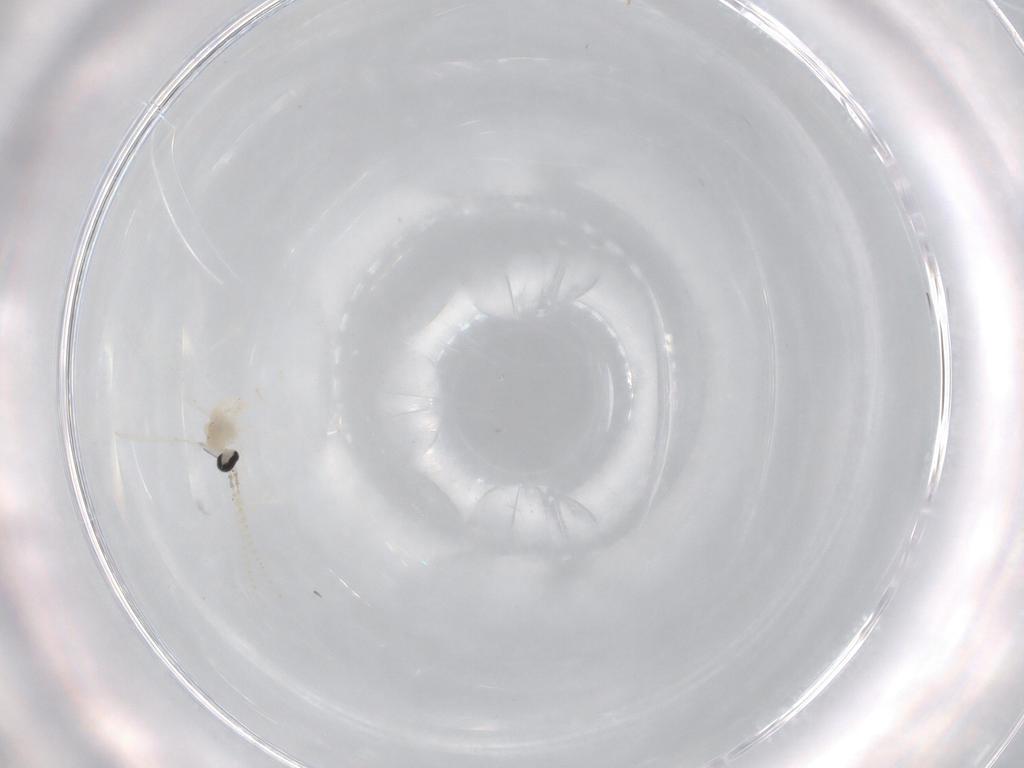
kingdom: Animalia
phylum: Arthropoda
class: Insecta
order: Diptera
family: Cecidomyiidae
